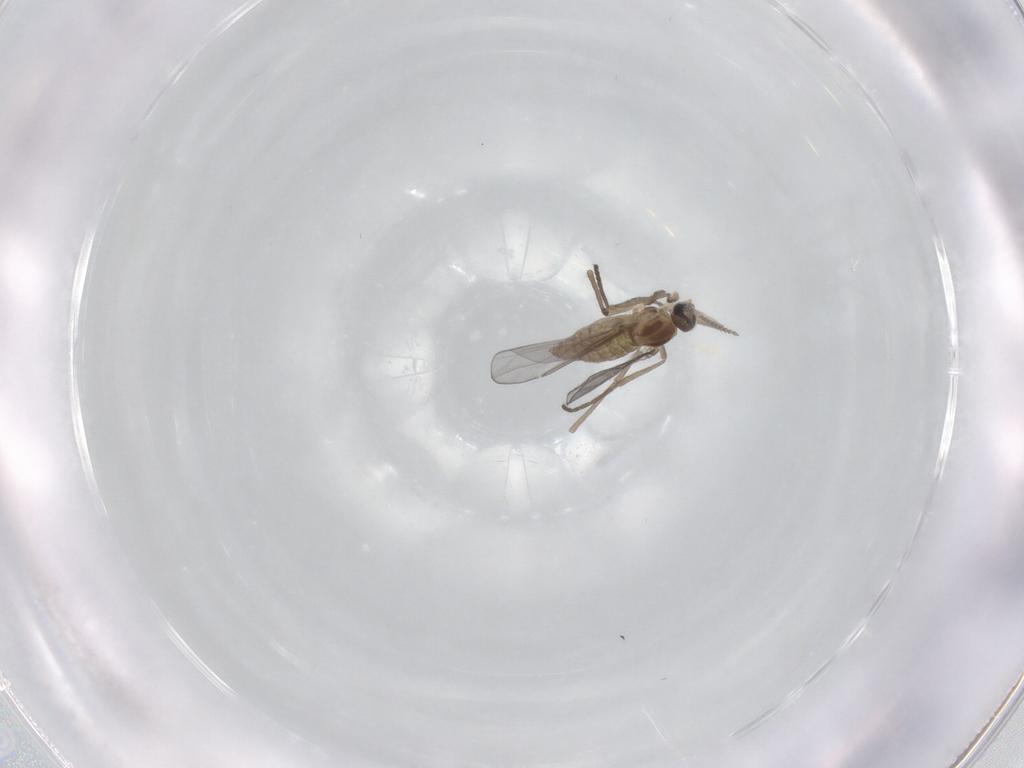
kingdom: Animalia
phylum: Arthropoda
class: Insecta
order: Diptera
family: Cecidomyiidae
